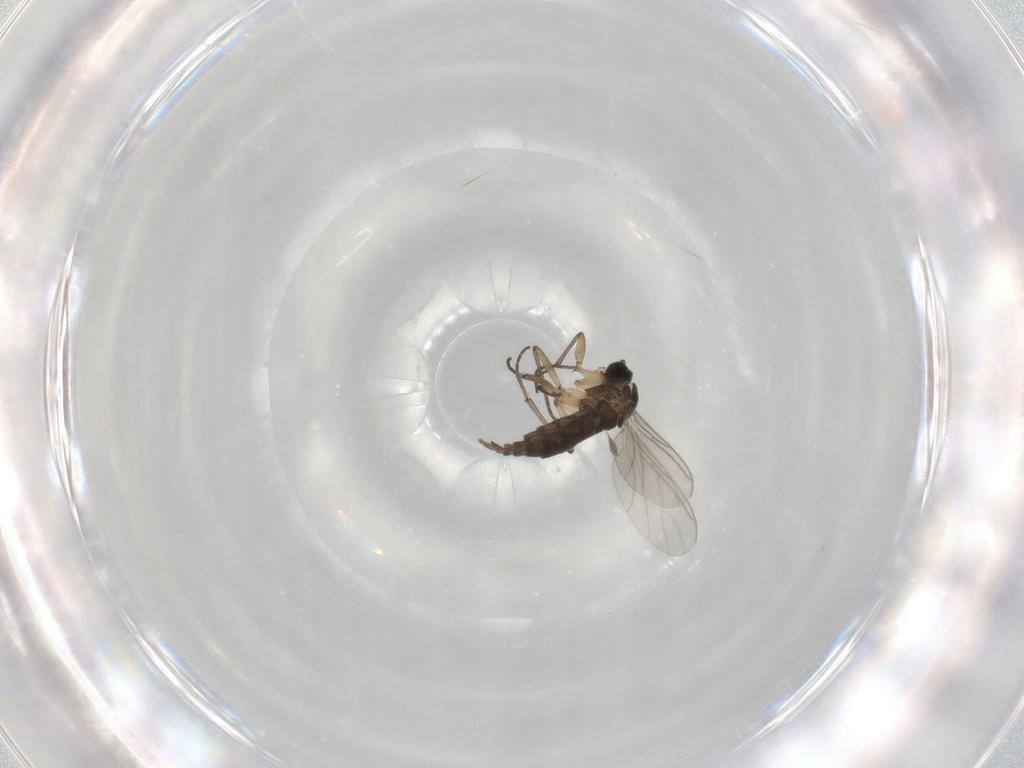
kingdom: Animalia
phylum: Arthropoda
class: Insecta
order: Diptera
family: Sciaridae
